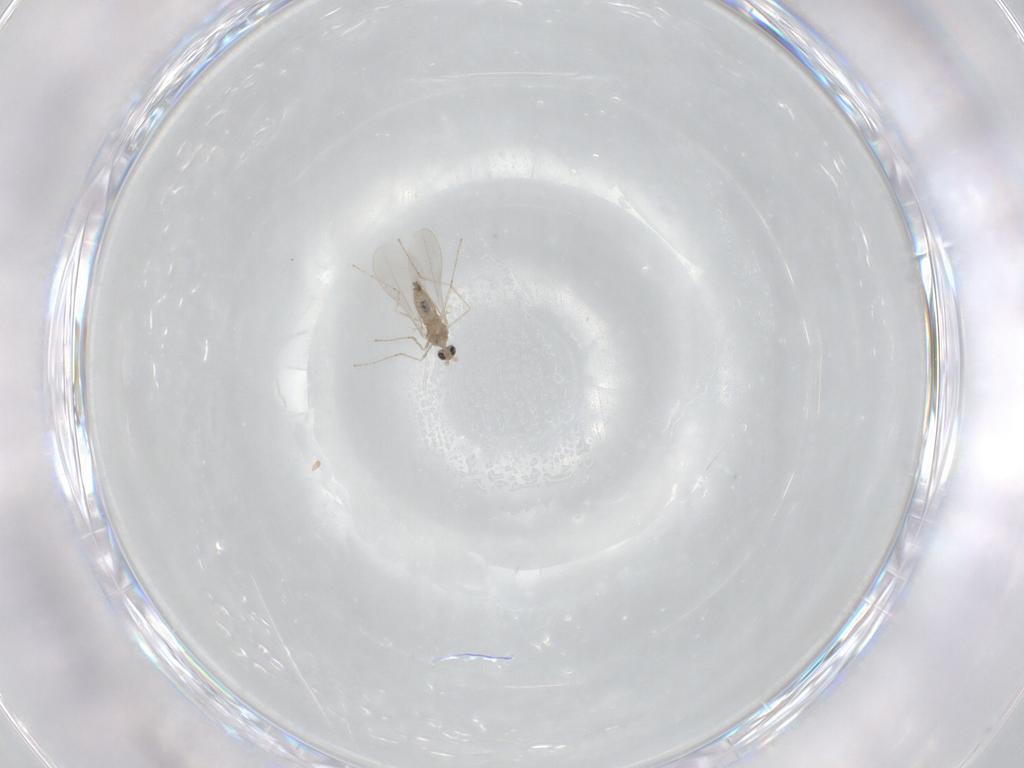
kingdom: Animalia
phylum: Arthropoda
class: Insecta
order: Diptera
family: Cecidomyiidae
